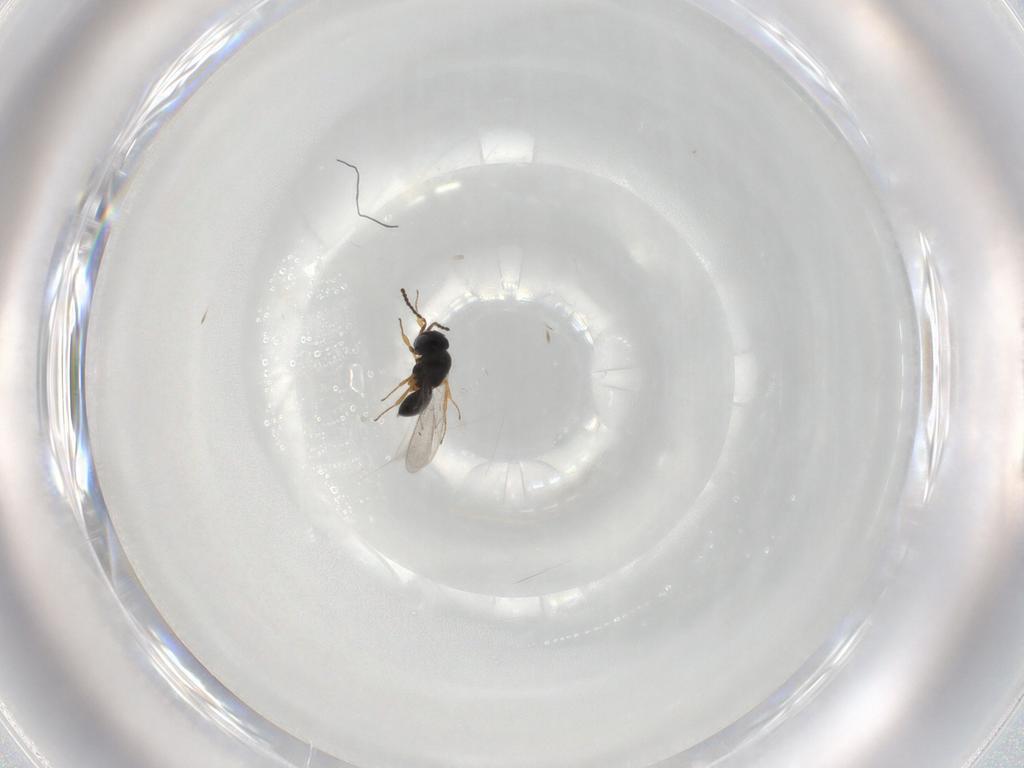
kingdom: Animalia
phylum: Arthropoda
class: Insecta
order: Hymenoptera
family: Scelionidae
